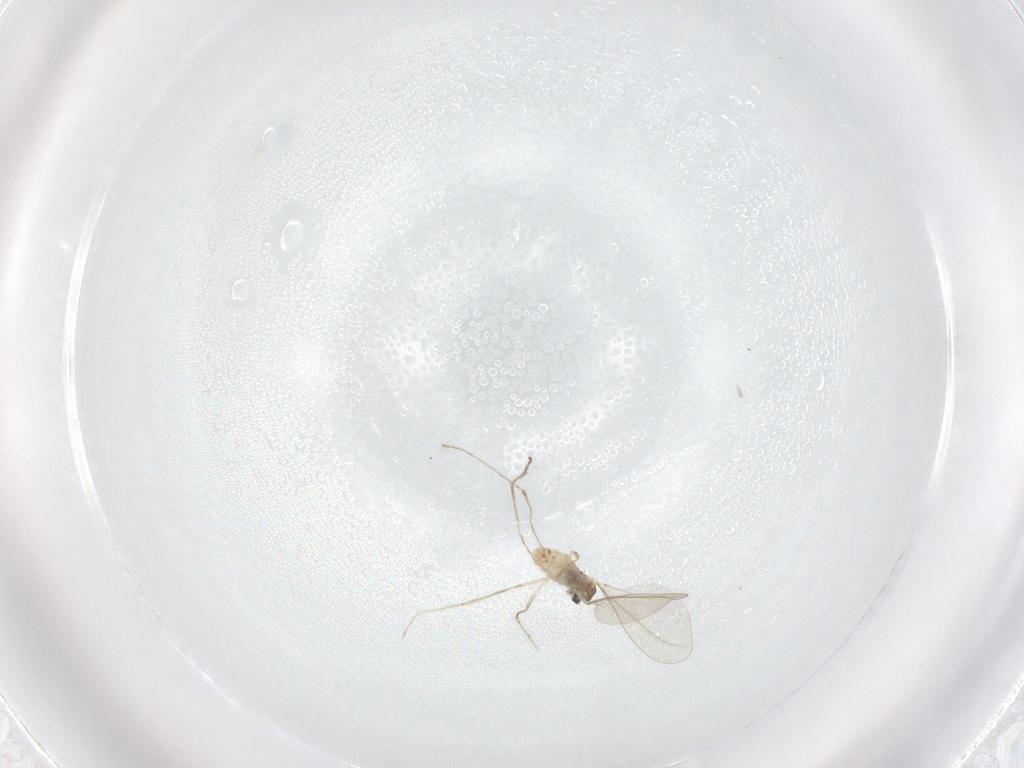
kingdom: Animalia
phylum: Arthropoda
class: Insecta
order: Diptera
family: Cecidomyiidae
